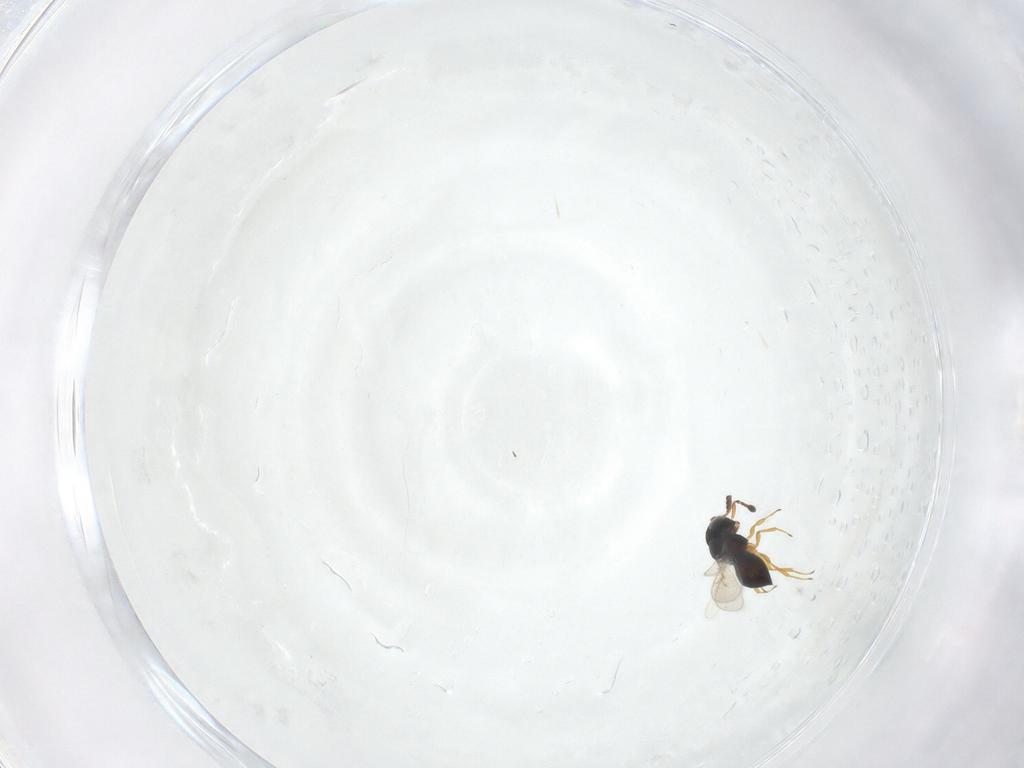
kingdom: Animalia
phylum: Arthropoda
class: Insecta
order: Hymenoptera
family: Scelionidae
